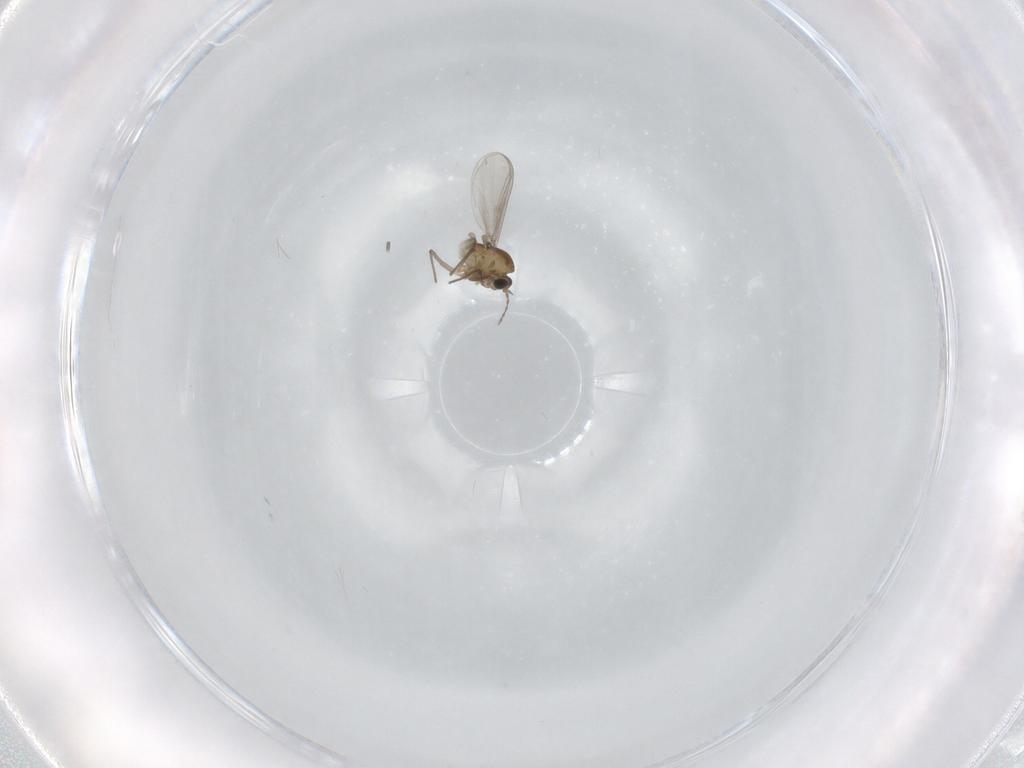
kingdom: Animalia
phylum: Arthropoda
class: Insecta
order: Diptera
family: Chironomidae
